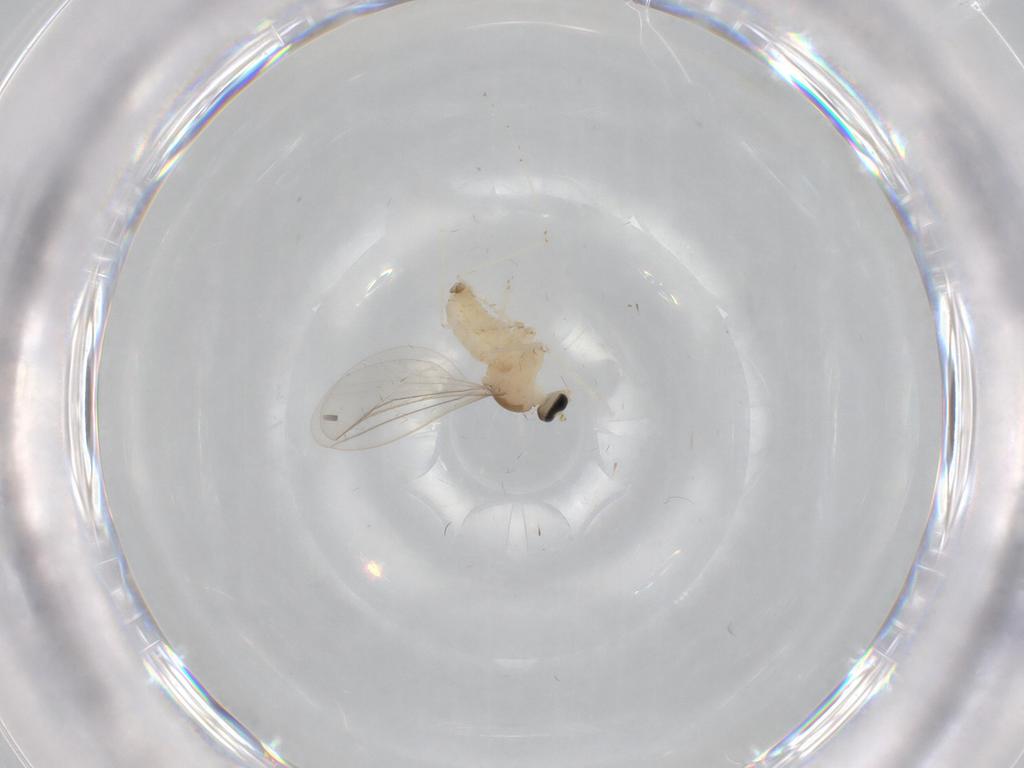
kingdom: Animalia
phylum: Arthropoda
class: Insecta
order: Diptera
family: Cecidomyiidae
